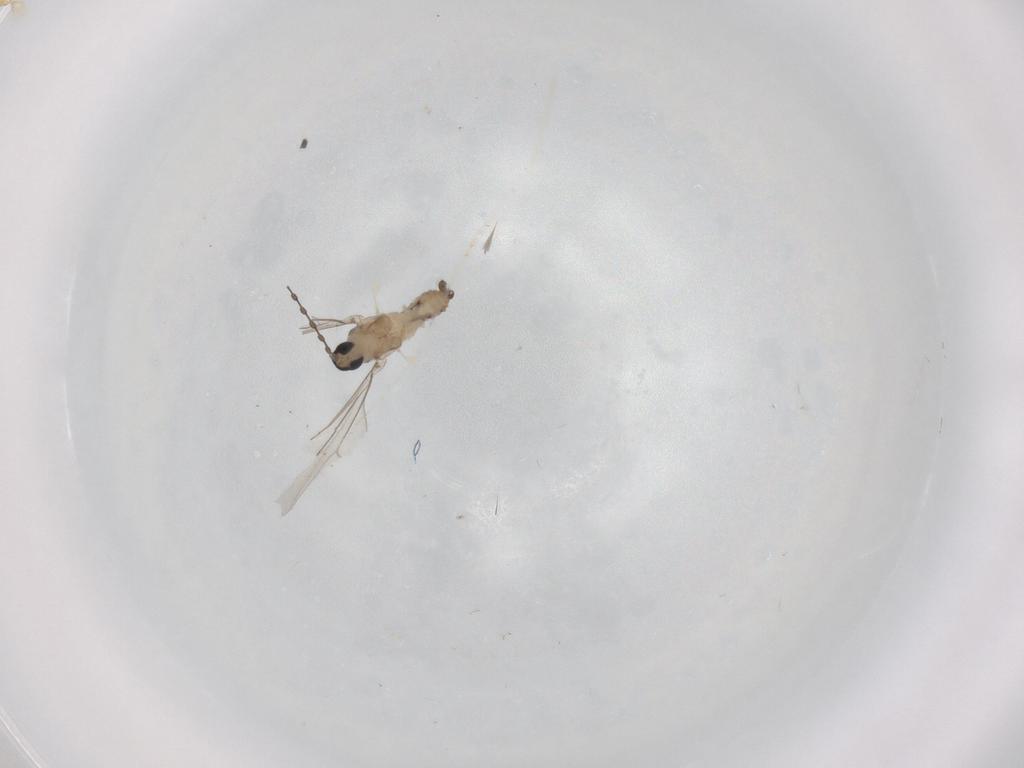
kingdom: Animalia
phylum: Arthropoda
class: Insecta
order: Diptera
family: Cecidomyiidae
